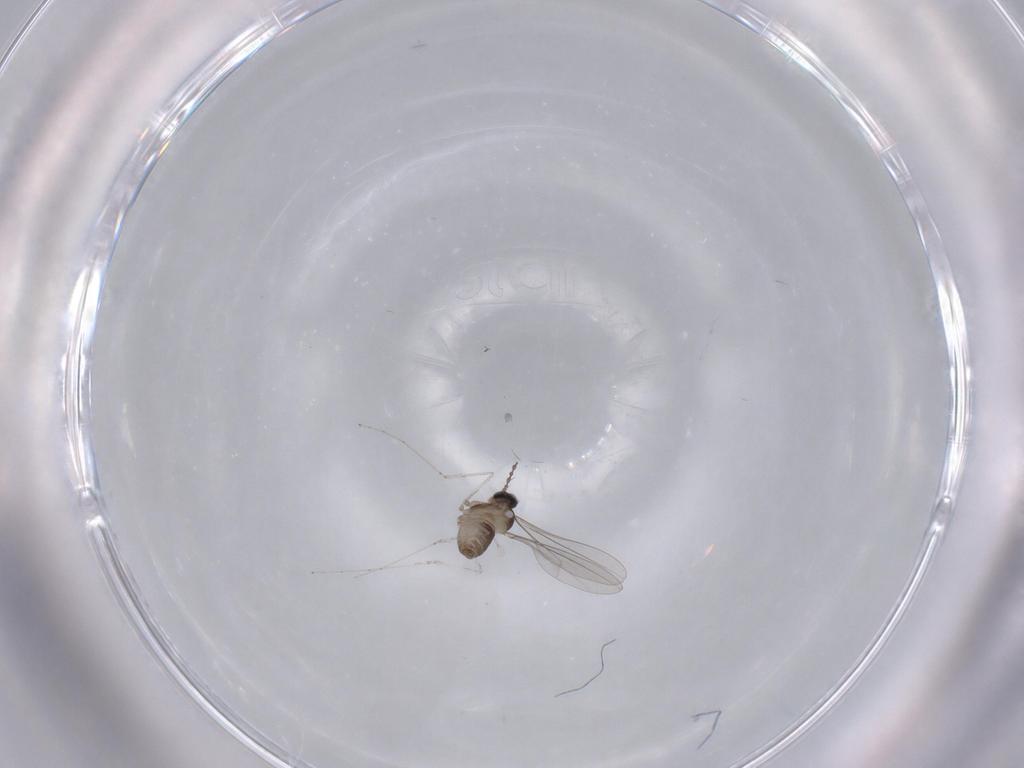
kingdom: Animalia
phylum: Arthropoda
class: Insecta
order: Diptera
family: Cecidomyiidae
